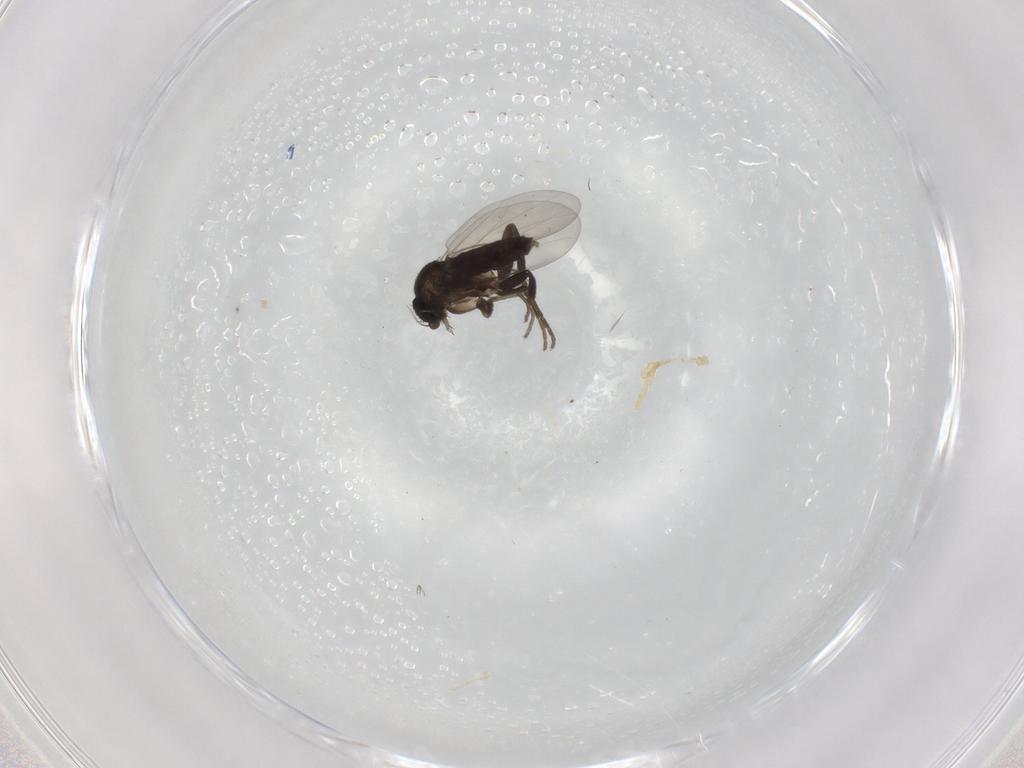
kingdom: Animalia
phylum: Arthropoda
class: Insecta
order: Diptera
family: Phoridae
